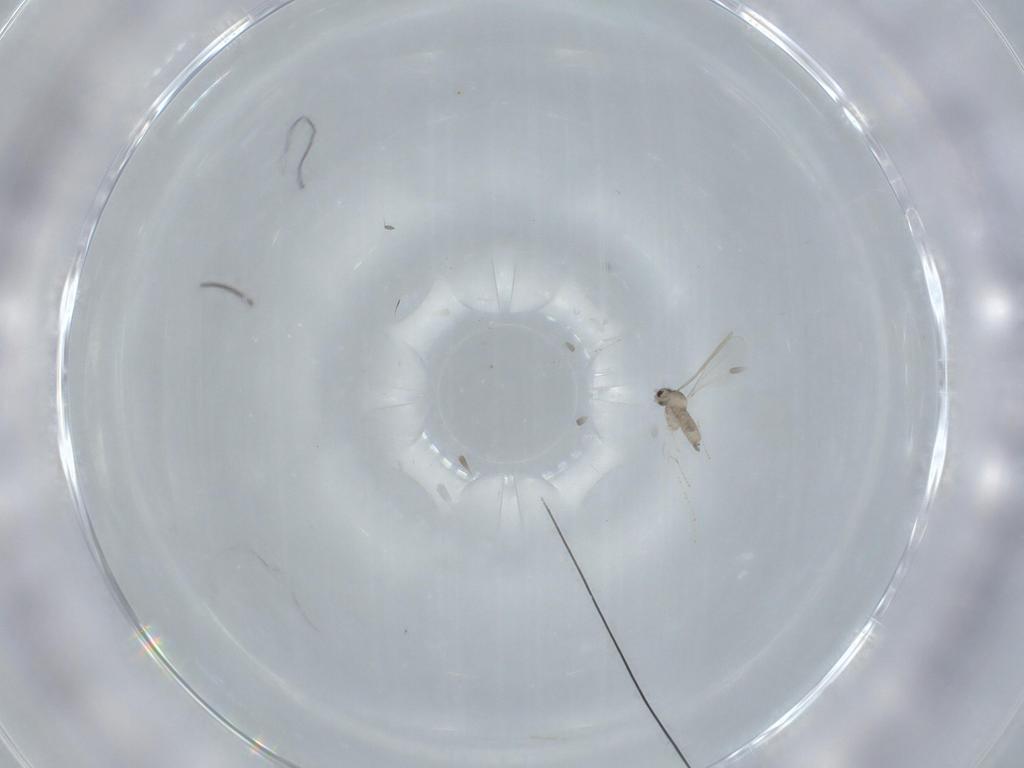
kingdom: Animalia
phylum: Arthropoda
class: Insecta
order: Diptera
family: Cecidomyiidae
